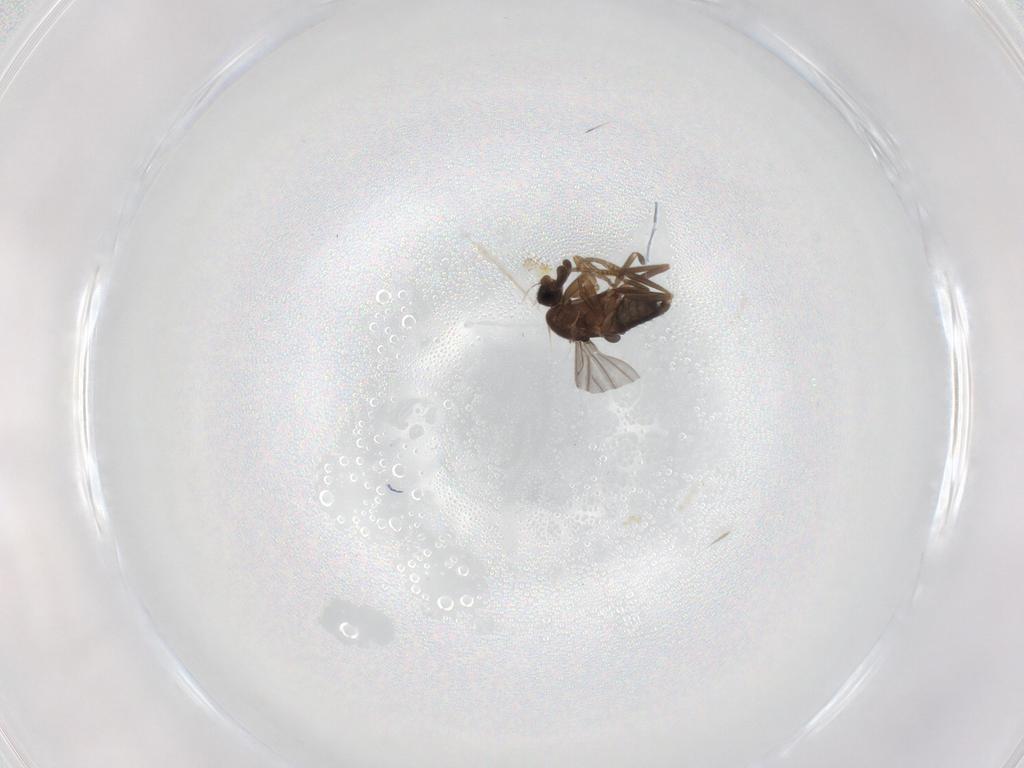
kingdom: Animalia
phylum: Arthropoda
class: Insecta
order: Diptera
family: Phoridae
